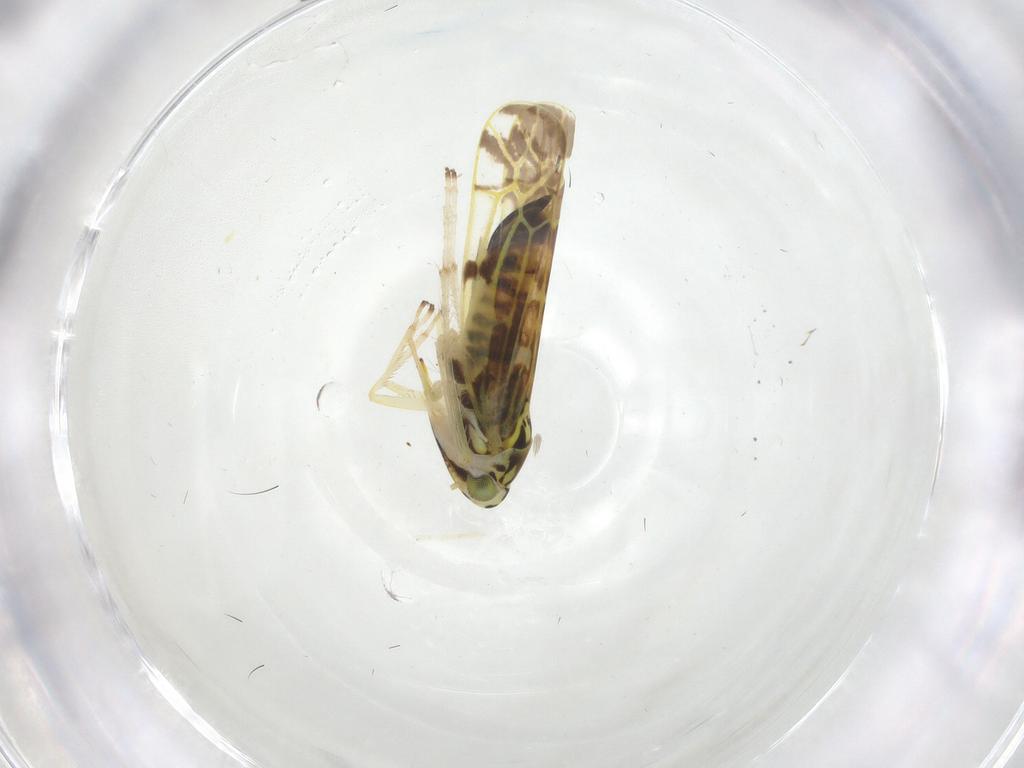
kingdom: Animalia
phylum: Arthropoda
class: Insecta
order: Hemiptera
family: Cicadellidae
